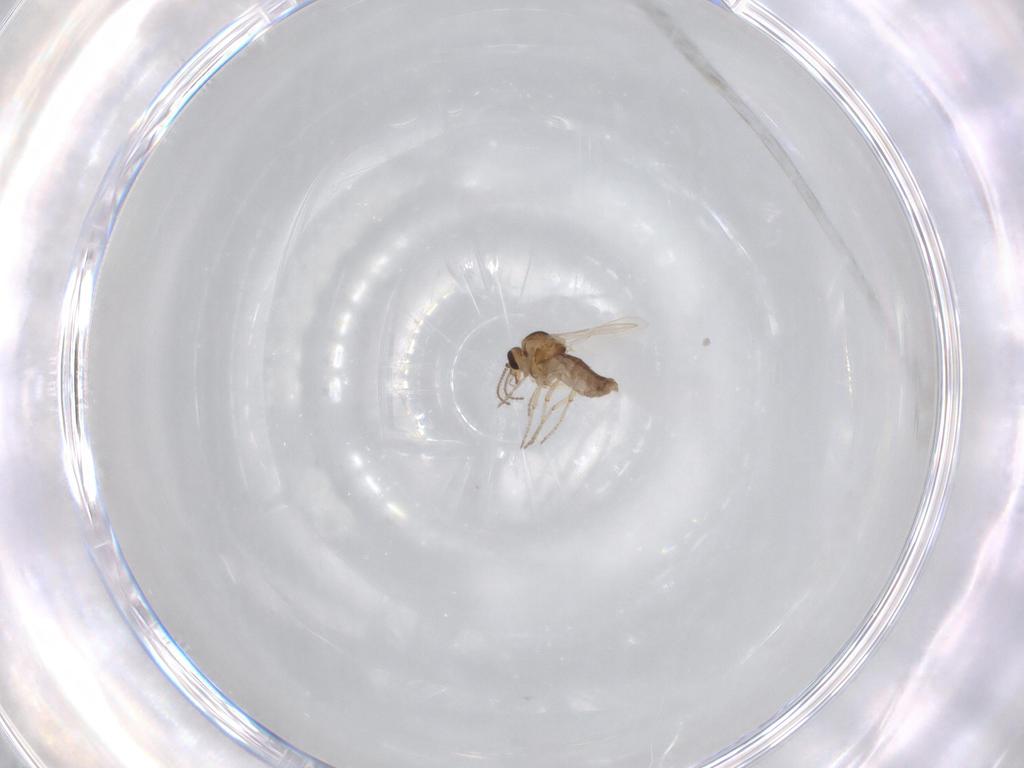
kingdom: Animalia
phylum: Arthropoda
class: Insecta
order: Diptera
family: Ceratopogonidae
